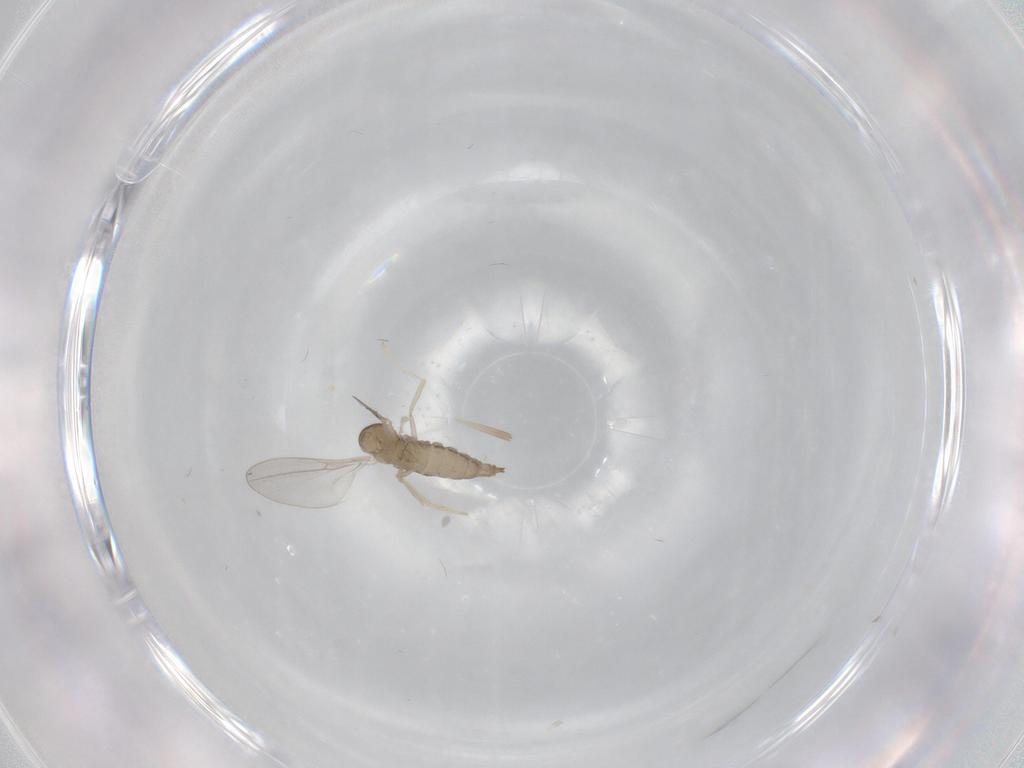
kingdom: Animalia
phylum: Arthropoda
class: Insecta
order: Diptera
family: Cecidomyiidae
